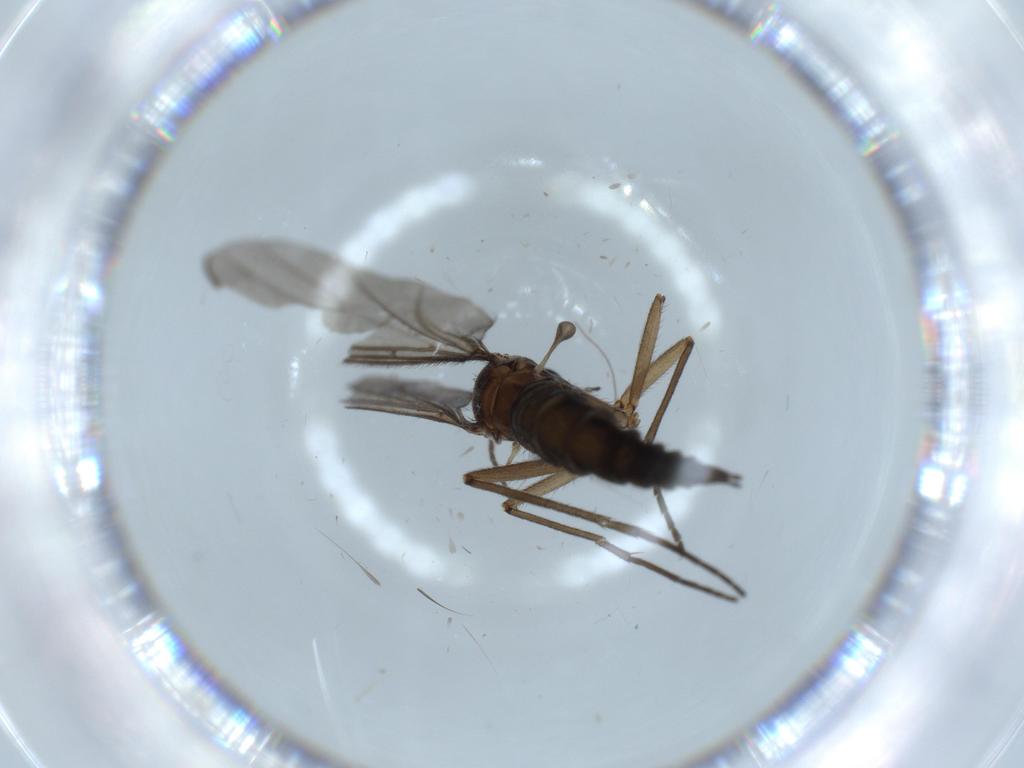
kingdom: Animalia
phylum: Arthropoda
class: Insecta
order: Diptera
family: Sciaridae
